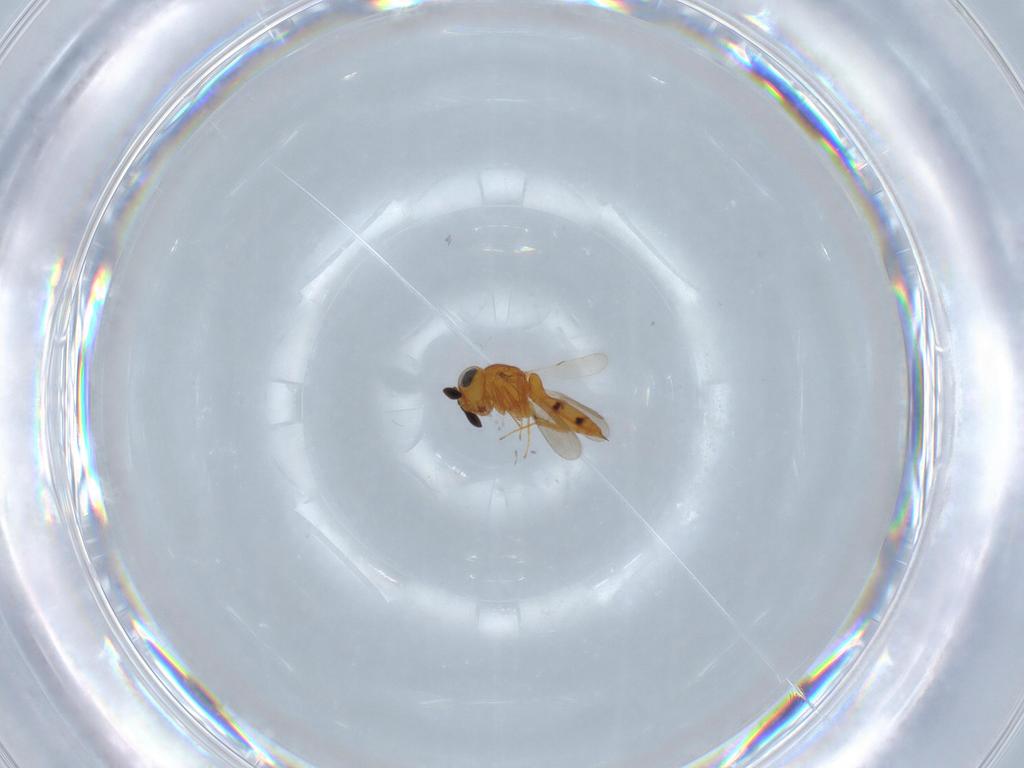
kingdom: Animalia
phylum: Arthropoda
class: Insecta
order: Hymenoptera
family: Scelionidae
